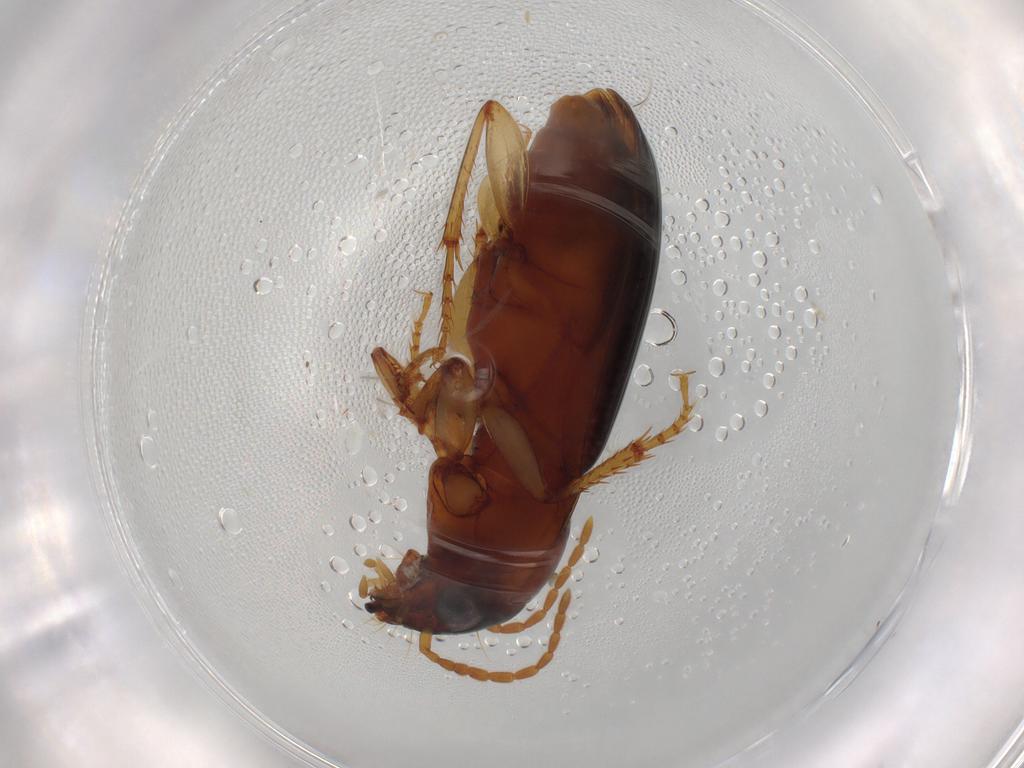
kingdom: Animalia
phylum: Arthropoda
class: Insecta
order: Coleoptera
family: Carabidae
